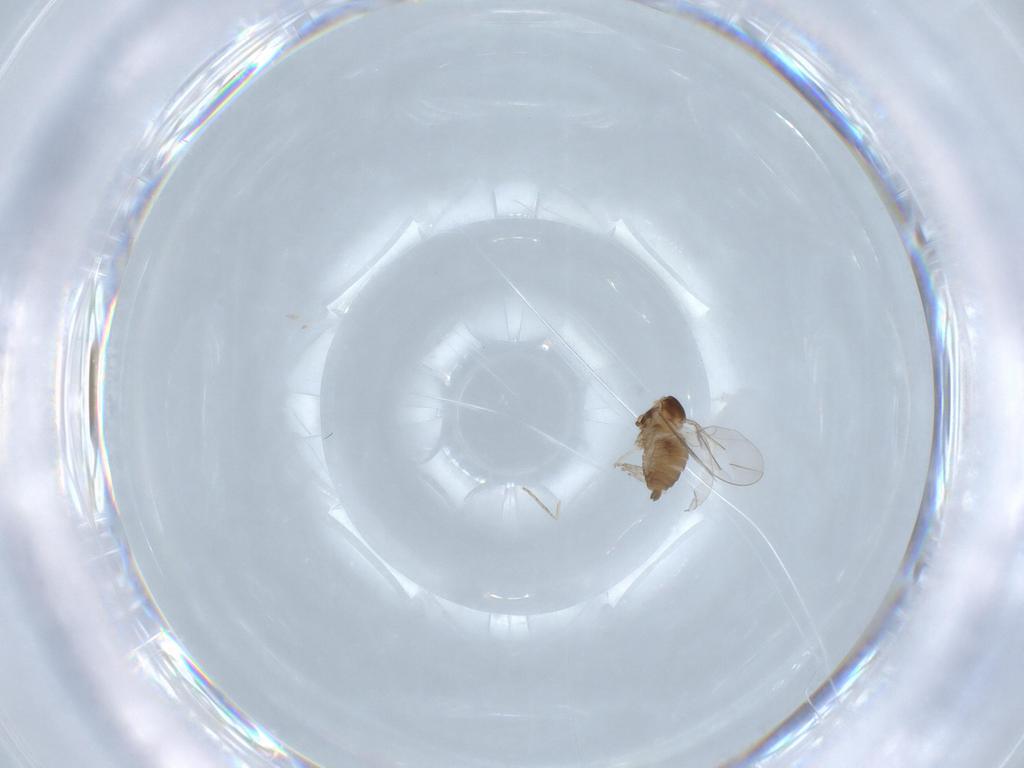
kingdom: Animalia
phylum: Arthropoda
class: Insecta
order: Diptera
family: Cecidomyiidae
